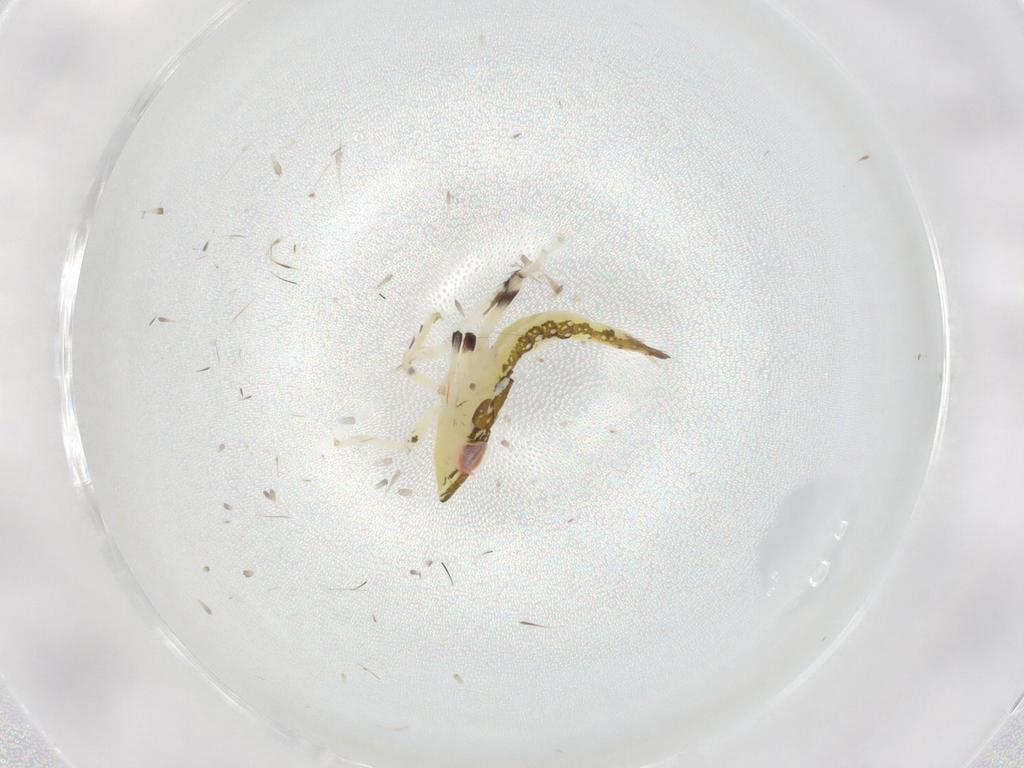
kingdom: Animalia
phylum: Arthropoda
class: Insecta
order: Hemiptera
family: Cicadellidae
